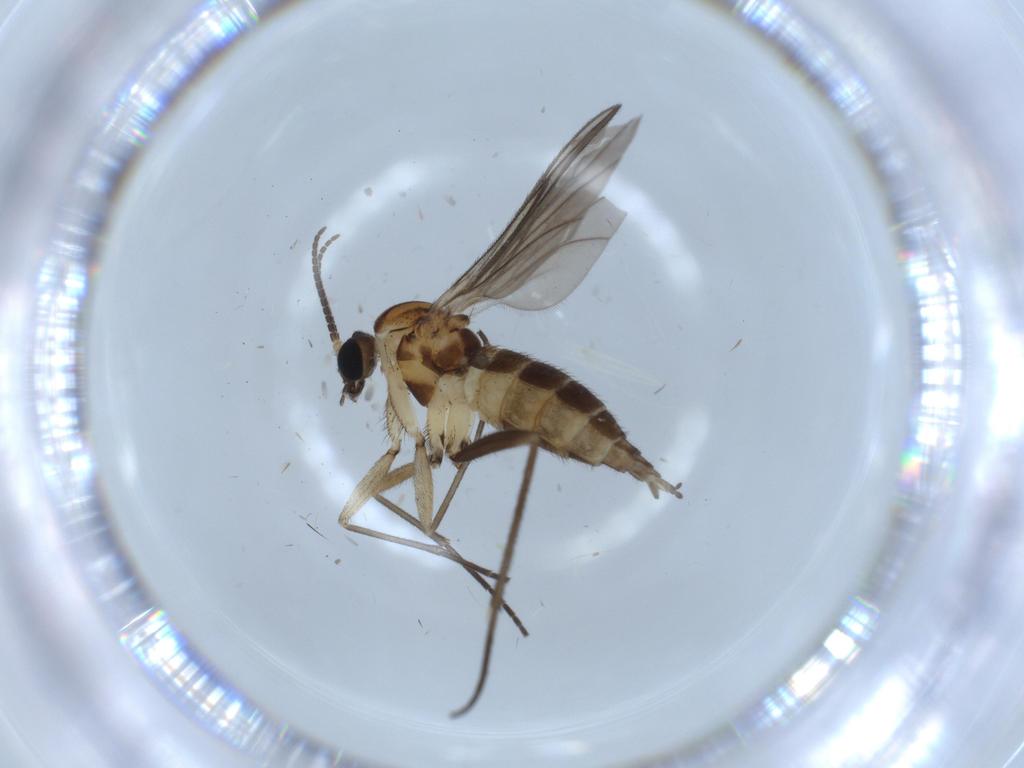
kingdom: Animalia
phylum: Arthropoda
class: Insecta
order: Diptera
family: Sciaridae
